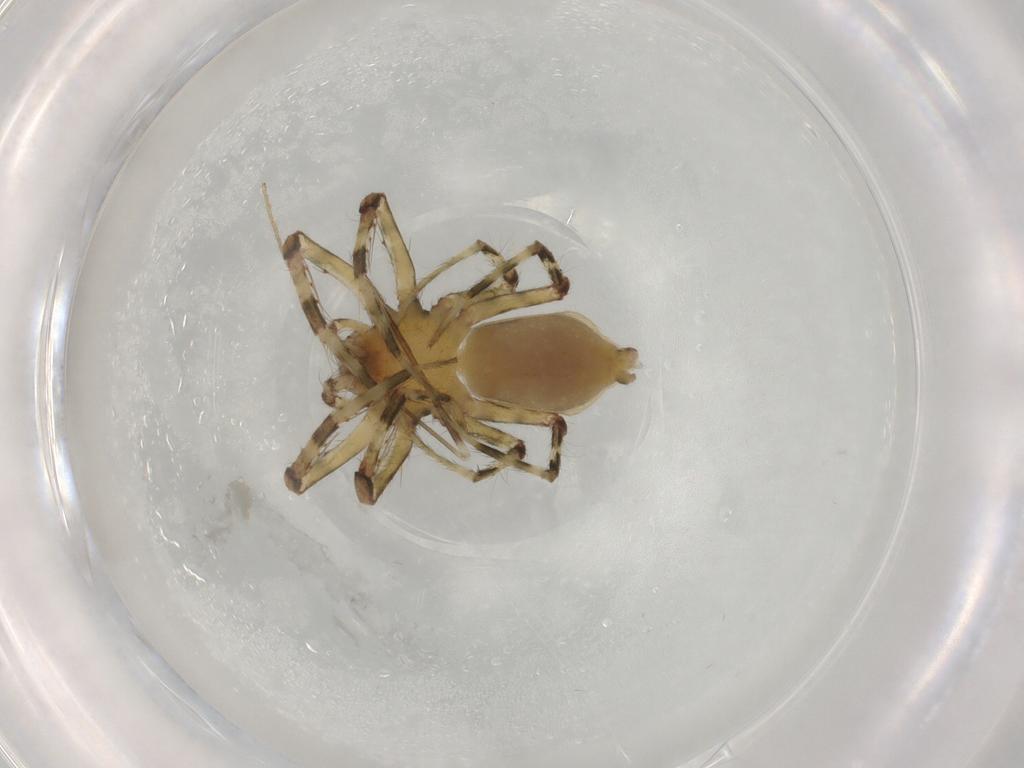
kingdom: Animalia
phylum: Arthropoda
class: Arachnida
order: Araneae
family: Senoculidae
